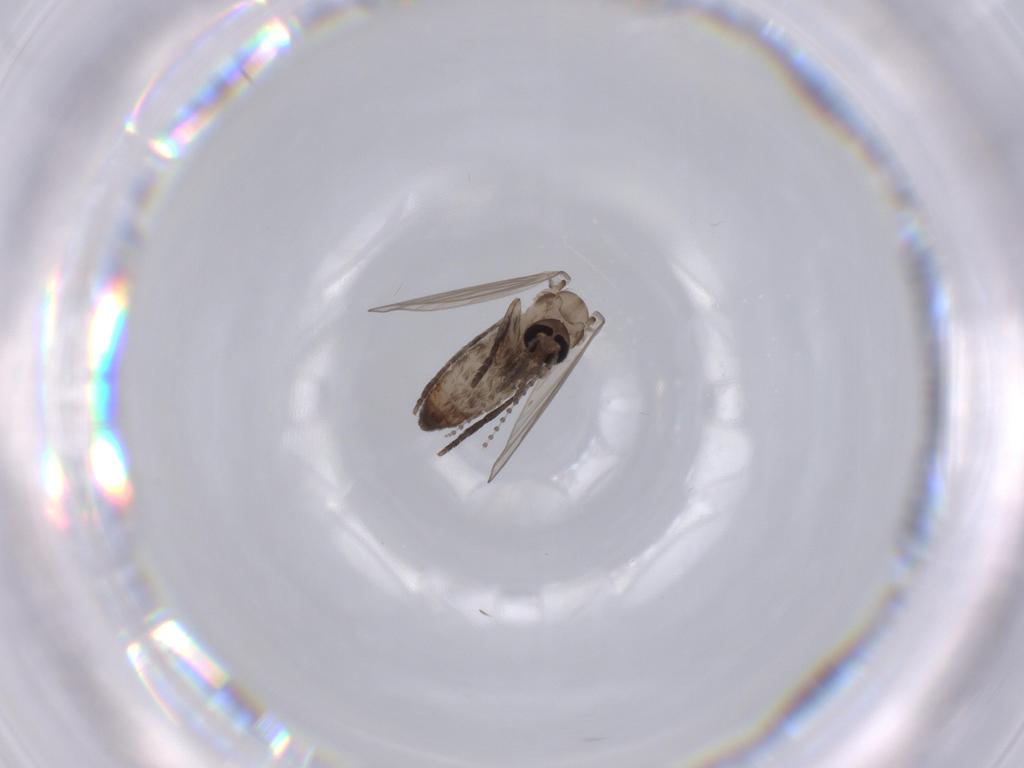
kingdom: Animalia
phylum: Arthropoda
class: Insecta
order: Diptera
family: Psychodidae
